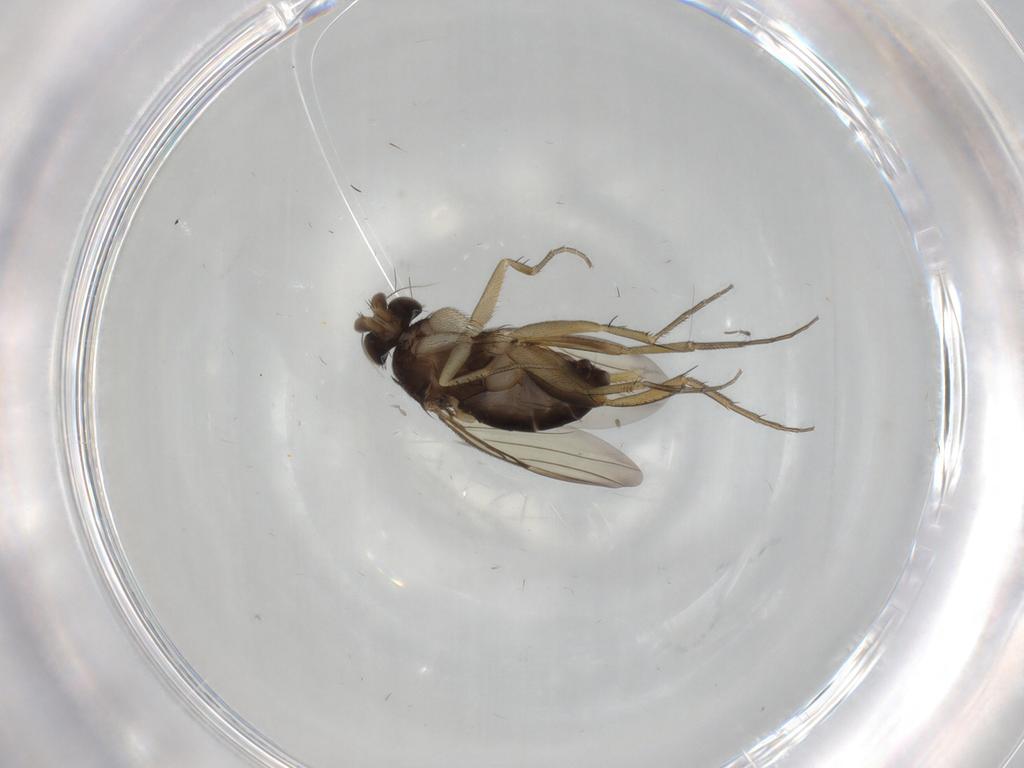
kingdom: Animalia
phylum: Arthropoda
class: Insecta
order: Diptera
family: Phoridae
